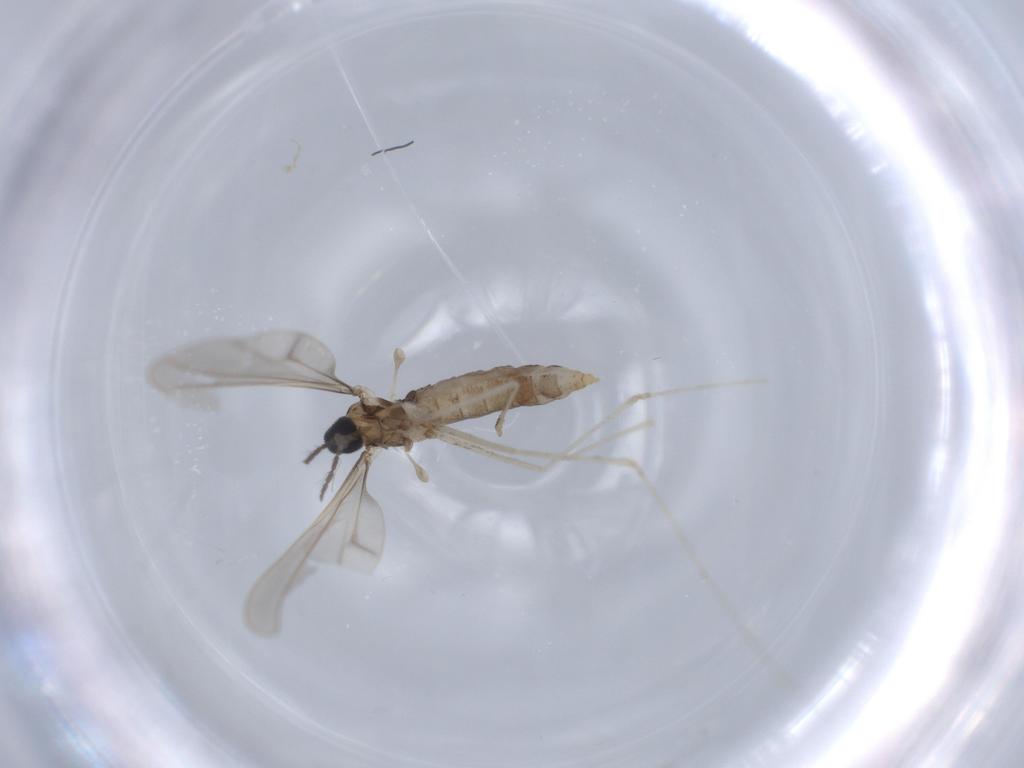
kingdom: Animalia
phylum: Arthropoda
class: Insecta
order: Diptera
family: Cecidomyiidae
